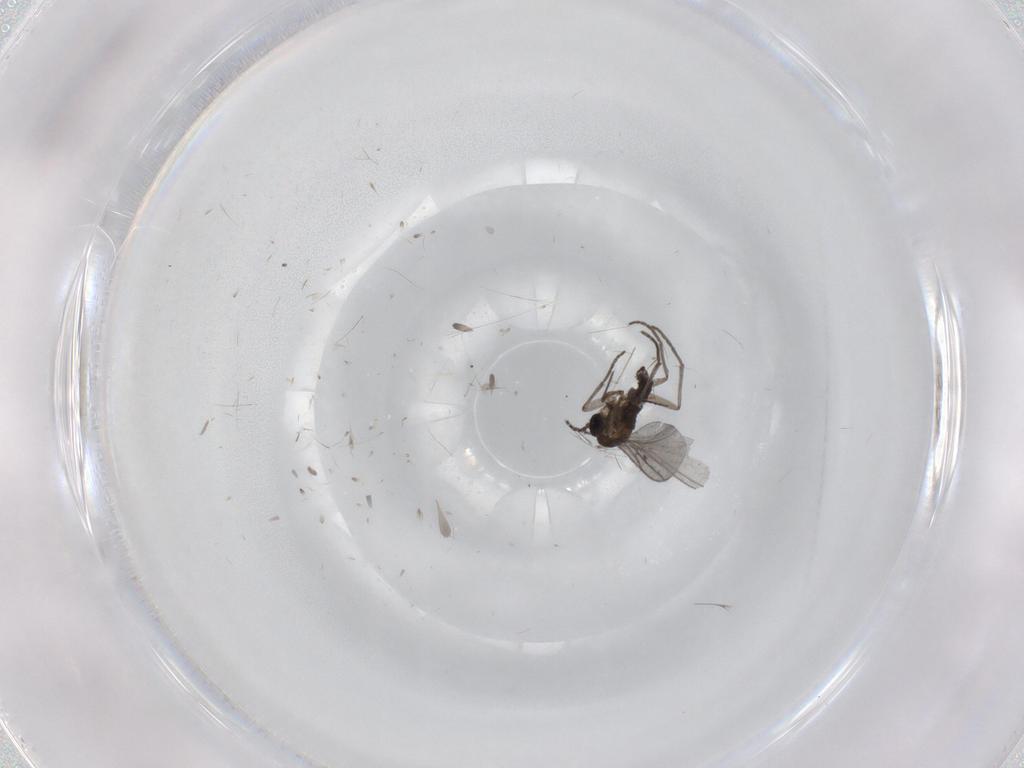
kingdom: Animalia
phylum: Arthropoda
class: Insecta
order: Diptera
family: Chironomidae
